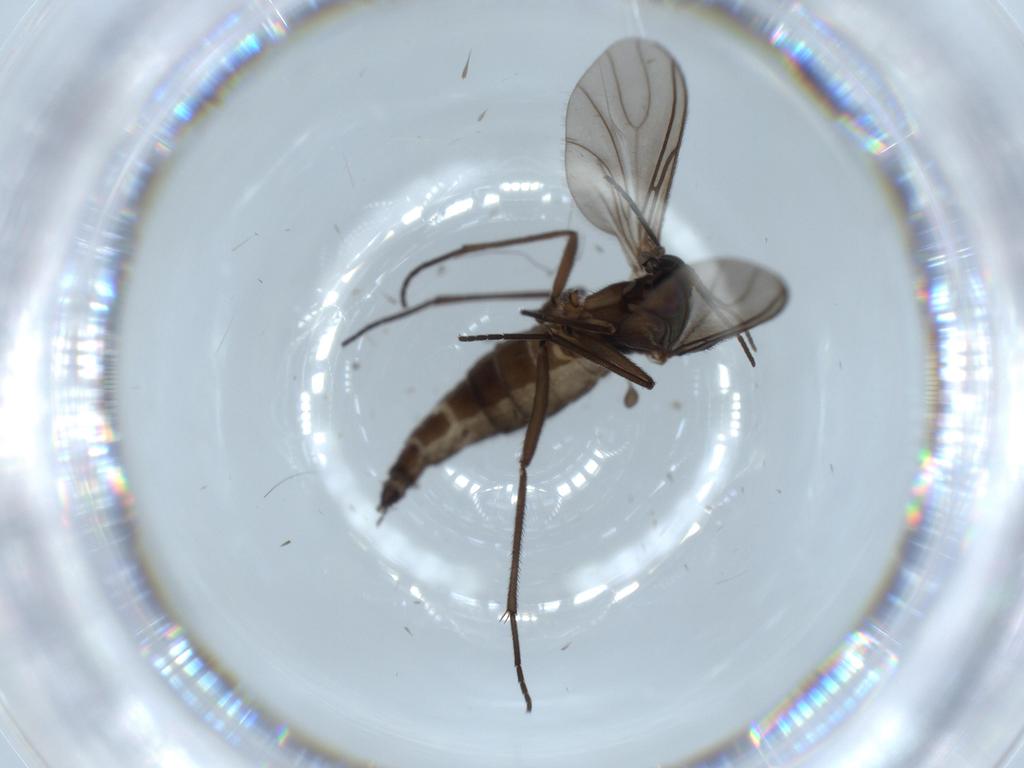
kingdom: Animalia
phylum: Arthropoda
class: Insecta
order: Diptera
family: Sciaridae
